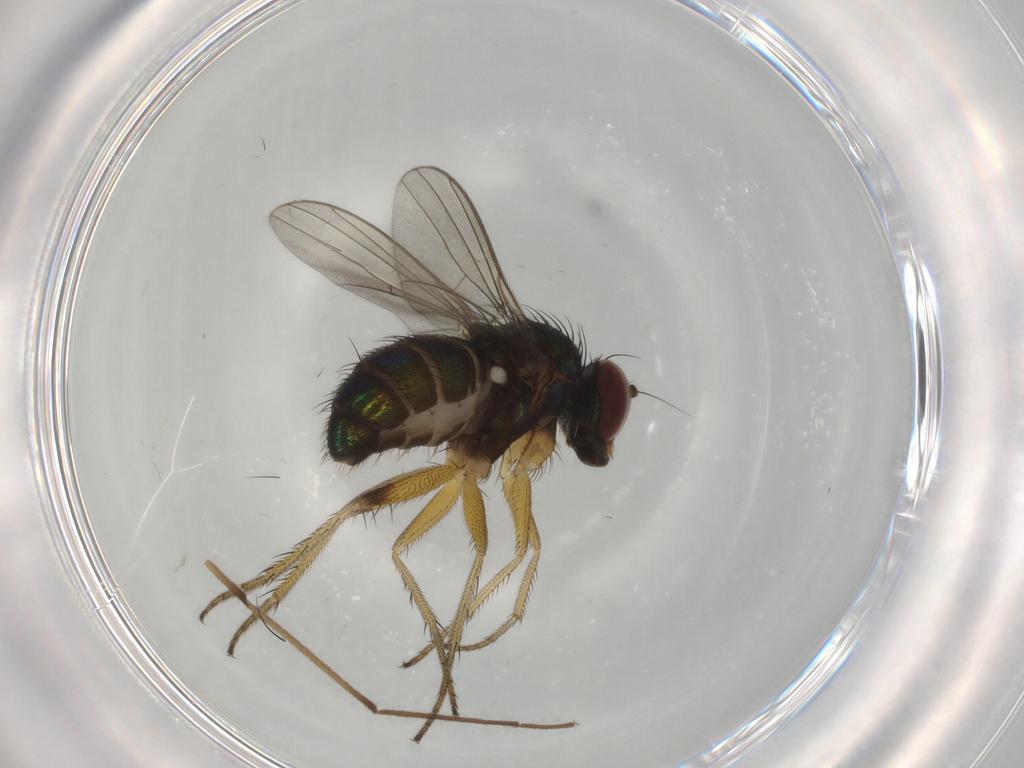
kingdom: Animalia
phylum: Arthropoda
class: Insecta
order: Diptera
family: Dolichopodidae
